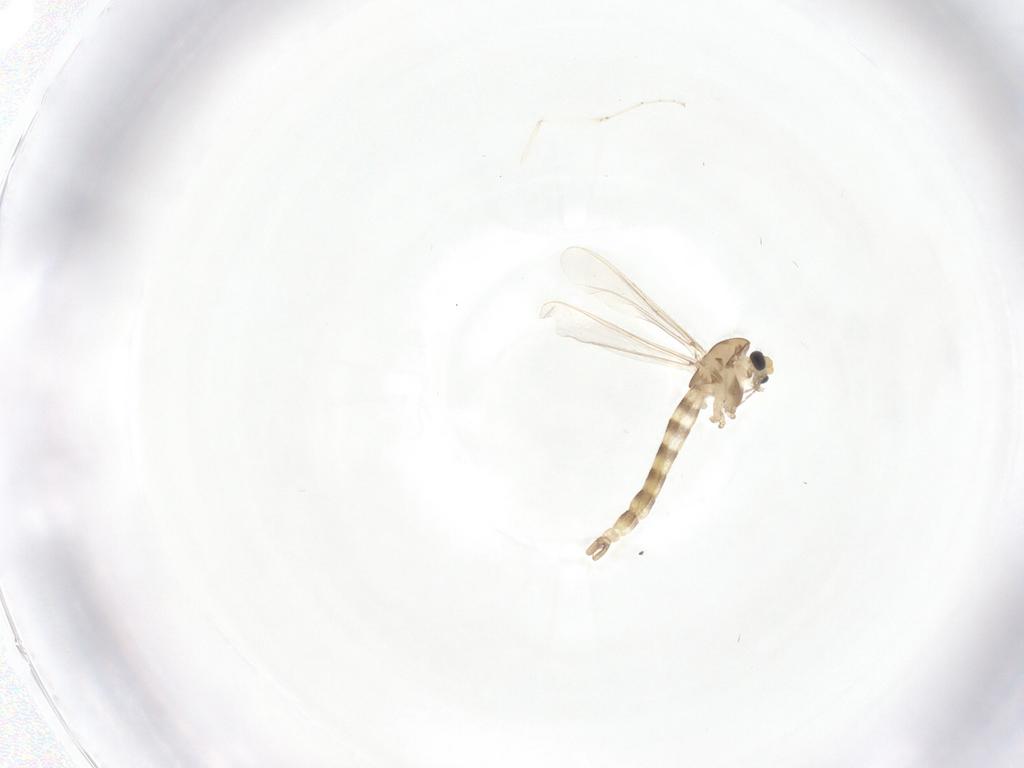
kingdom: Animalia
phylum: Arthropoda
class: Insecta
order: Diptera
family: Chironomidae
